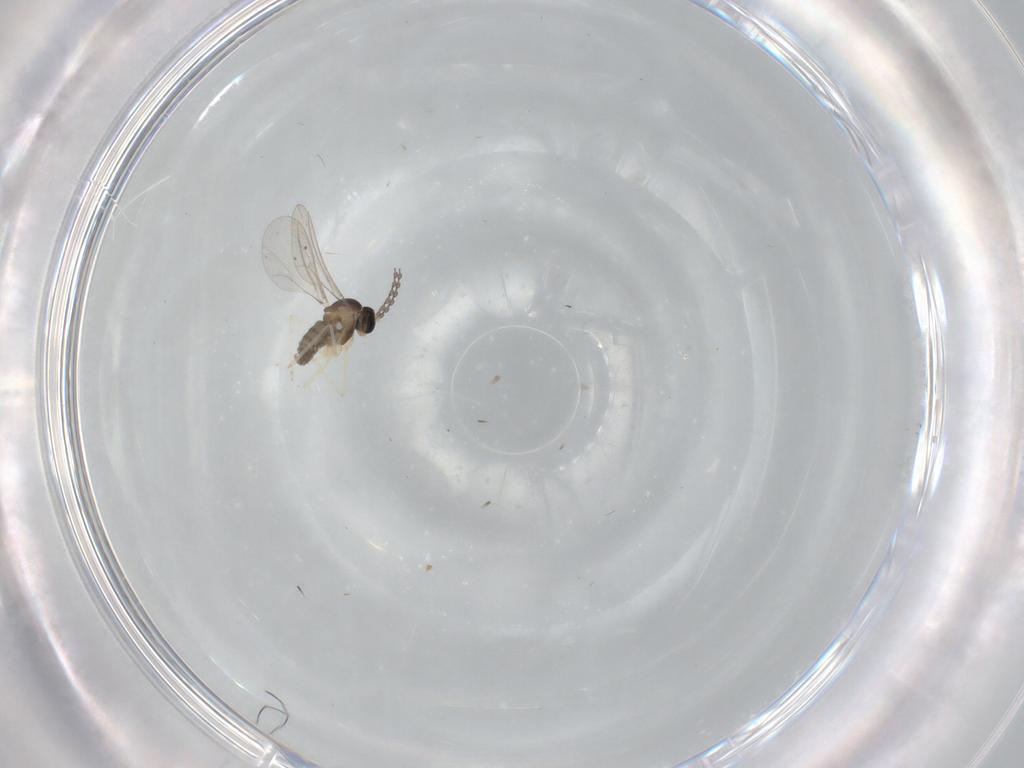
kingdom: Animalia
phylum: Arthropoda
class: Insecta
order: Diptera
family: Cecidomyiidae
